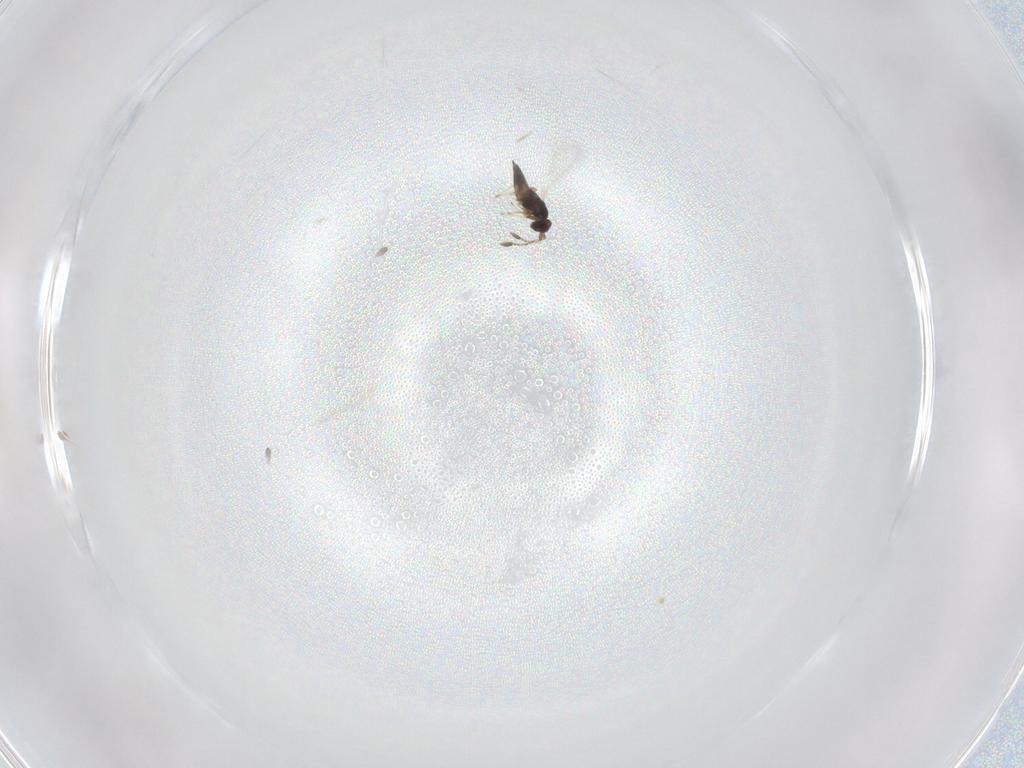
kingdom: Animalia
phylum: Arthropoda
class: Insecta
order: Hymenoptera
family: Mymaridae
